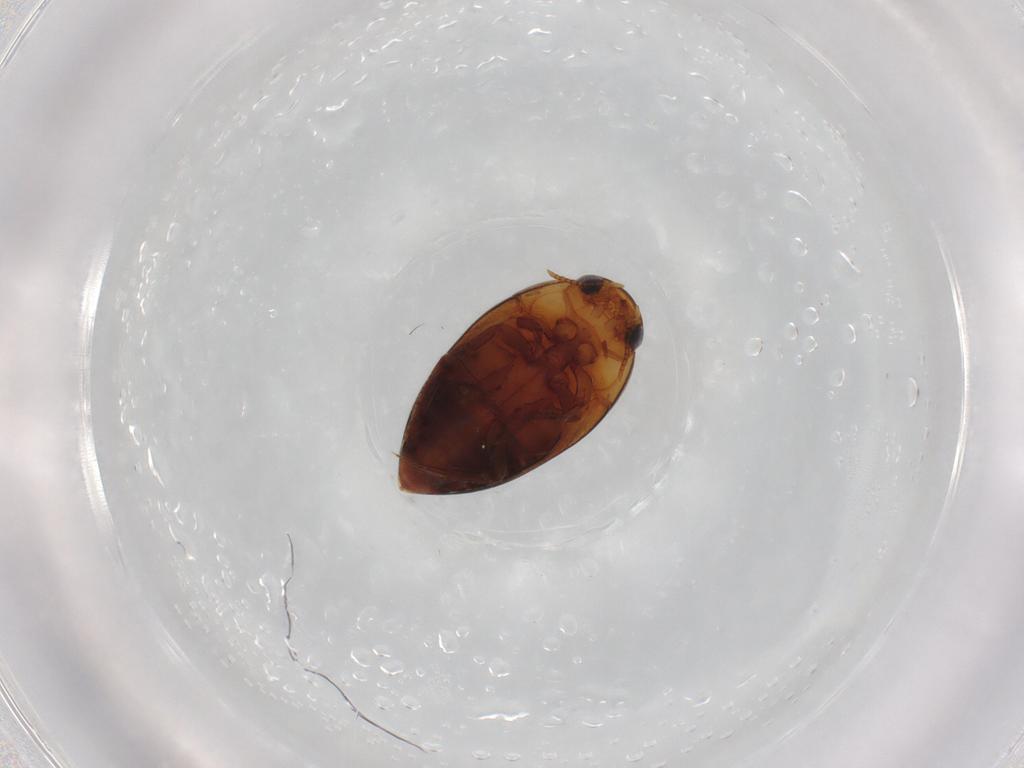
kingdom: Animalia
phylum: Arthropoda
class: Insecta
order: Coleoptera
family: Noteridae
